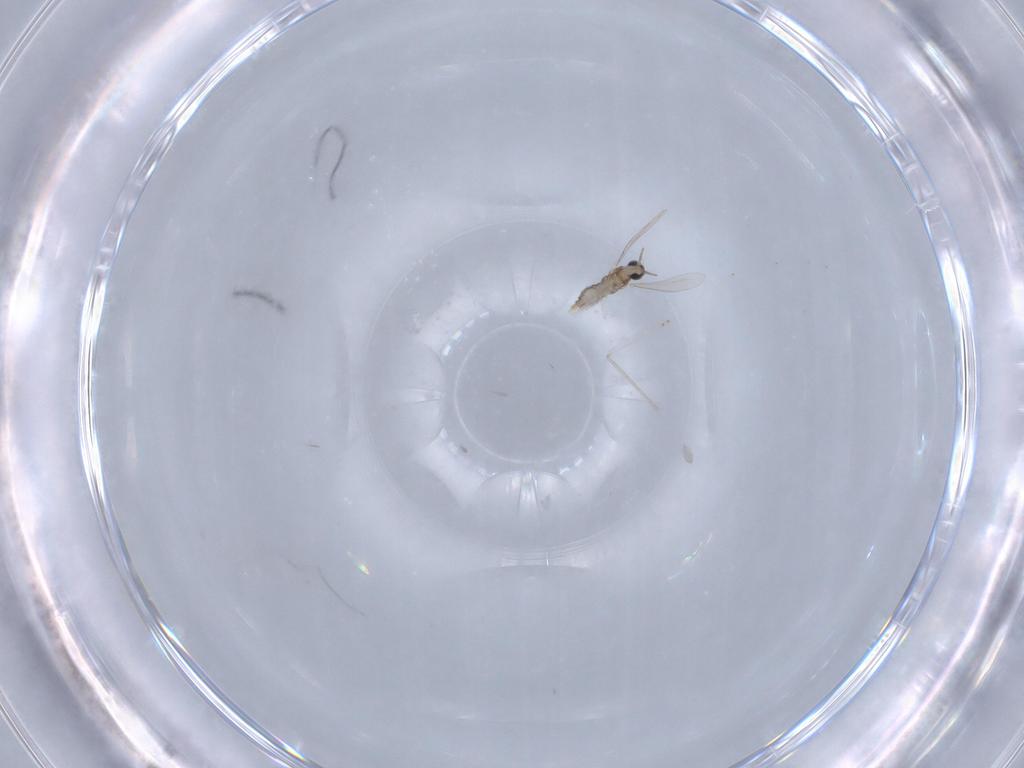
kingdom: Animalia
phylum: Arthropoda
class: Insecta
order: Diptera
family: Cecidomyiidae
